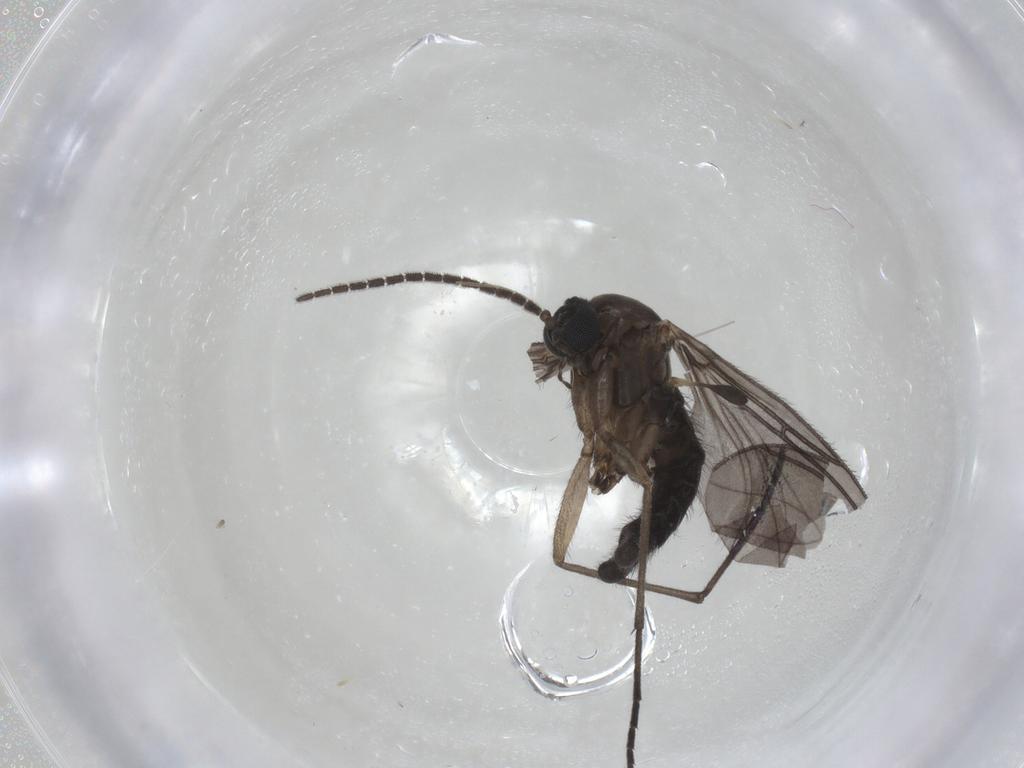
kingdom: Animalia
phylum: Arthropoda
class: Insecta
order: Diptera
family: Sciaridae
